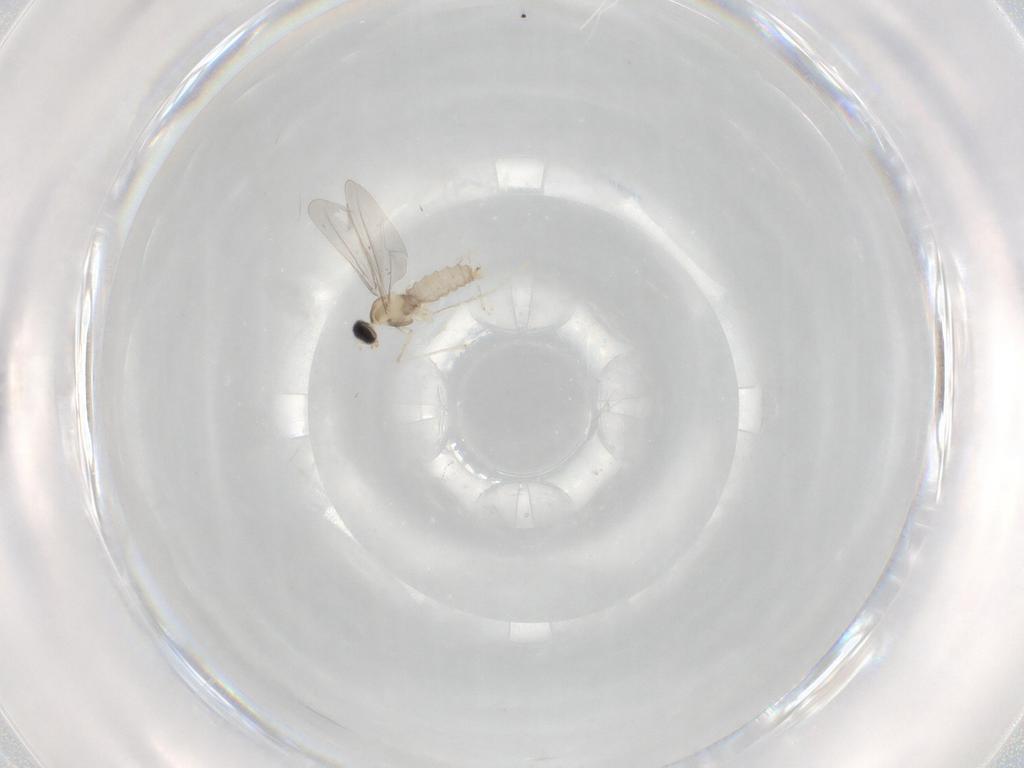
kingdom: Animalia
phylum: Arthropoda
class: Insecta
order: Diptera
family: Cecidomyiidae
